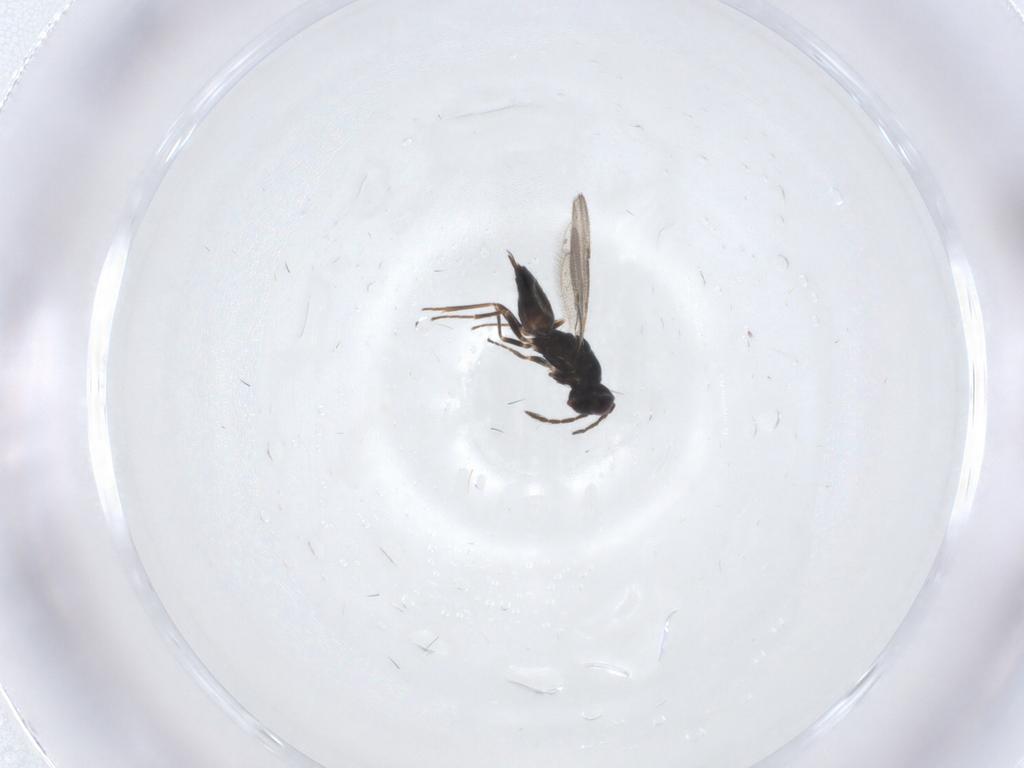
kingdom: Animalia
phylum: Arthropoda
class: Insecta
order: Hymenoptera
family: Eulophidae
